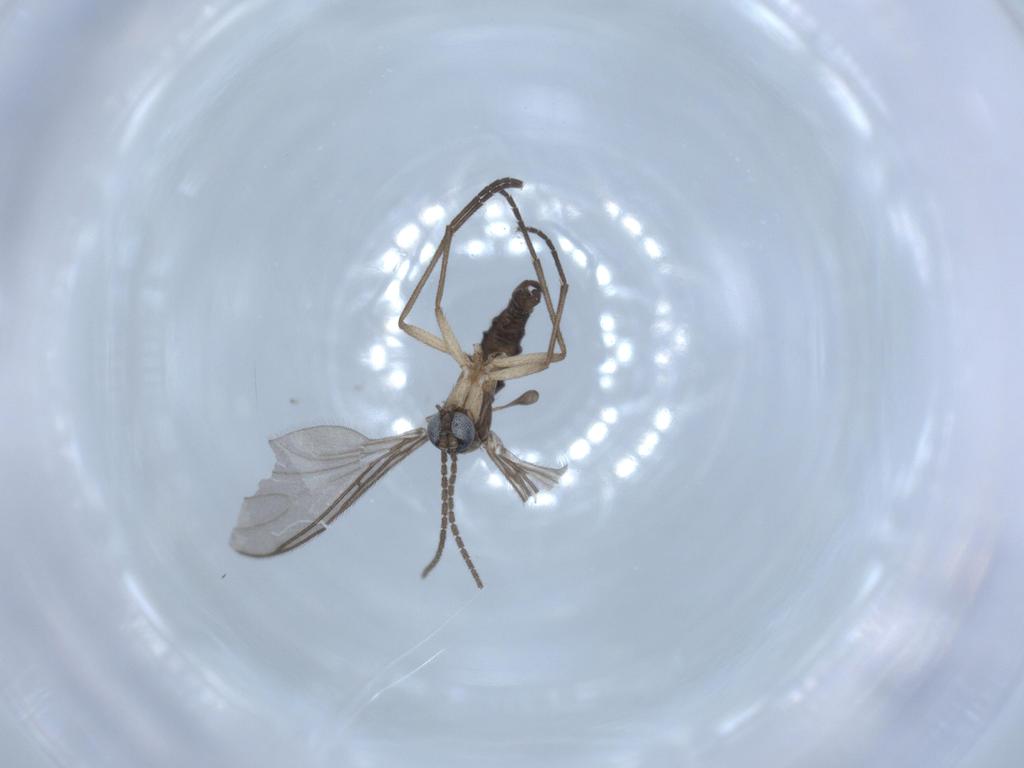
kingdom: Animalia
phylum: Arthropoda
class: Insecta
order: Diptera
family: Sciaridae
